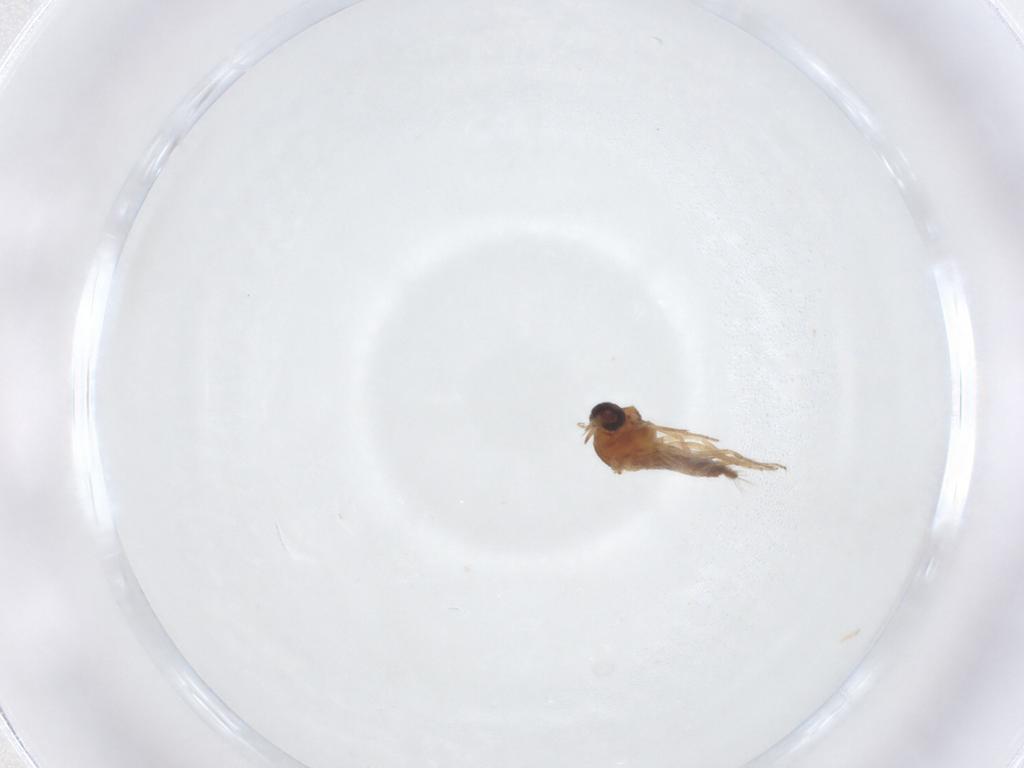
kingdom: Animalia
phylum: Arthropoda
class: Insecta
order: Diptera
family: Ceratopogonidae
